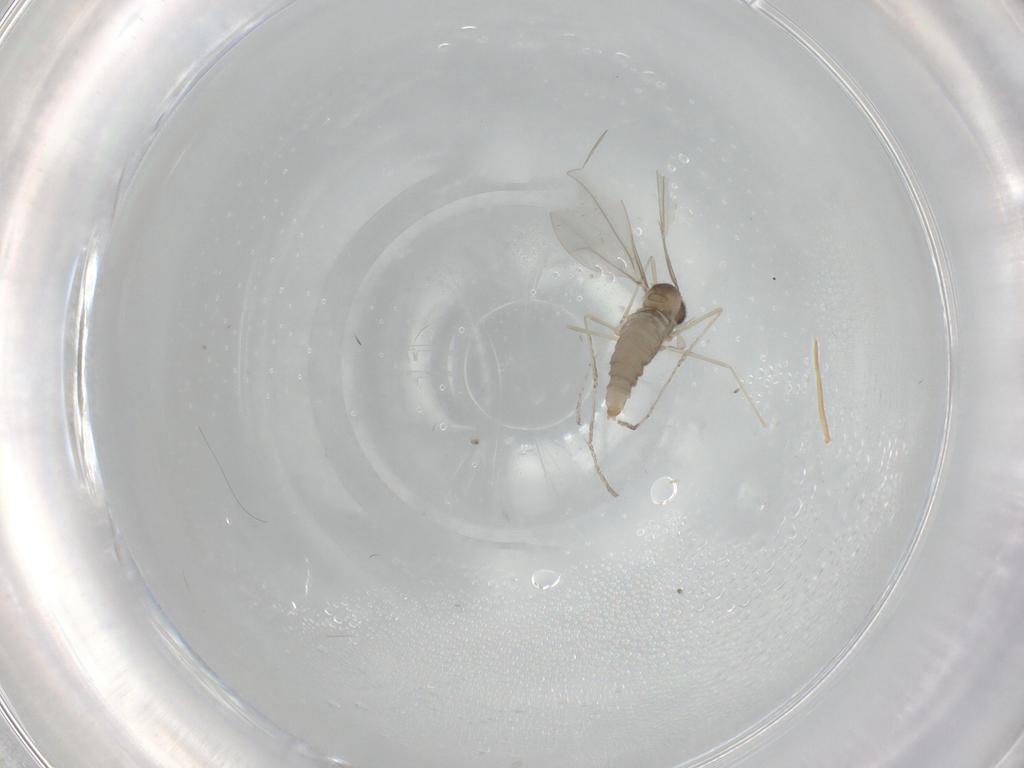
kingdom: Animalia
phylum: Arthropoda
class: Insecta
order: Diptera
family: Cecidomyiidae
